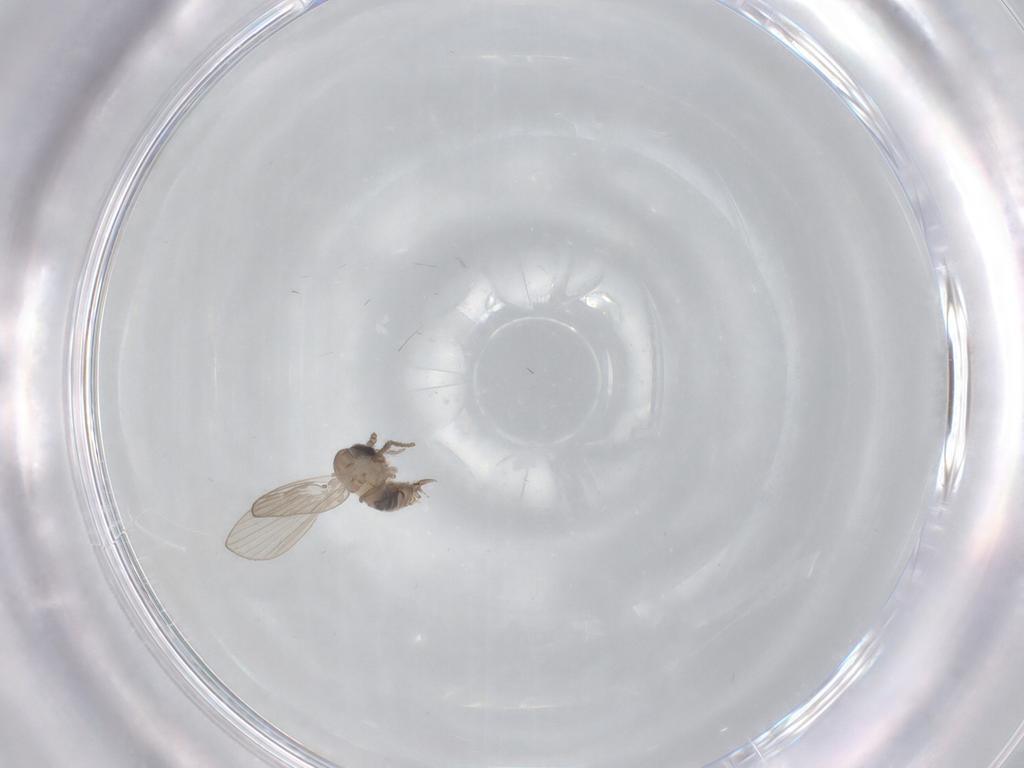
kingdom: Animalia
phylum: Arthropoda
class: Insecta
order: Diptera
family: Psychodidae
